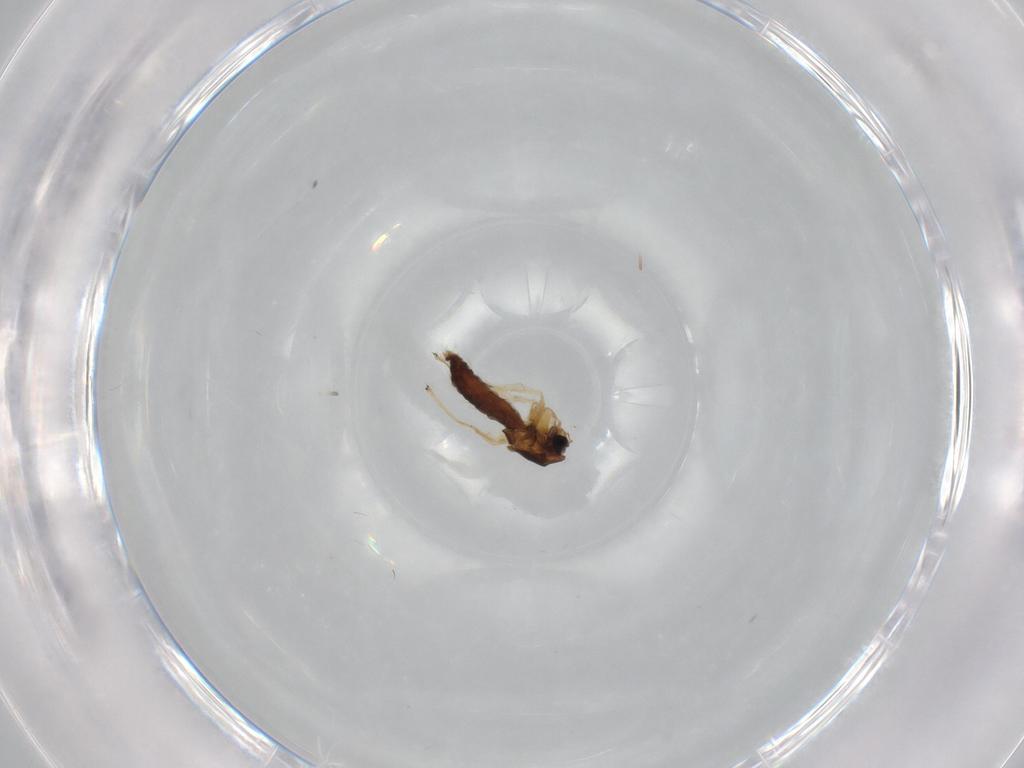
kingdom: Animalia
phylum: Arthropoda
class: Insecta
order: Diptera
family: Chironomidae
